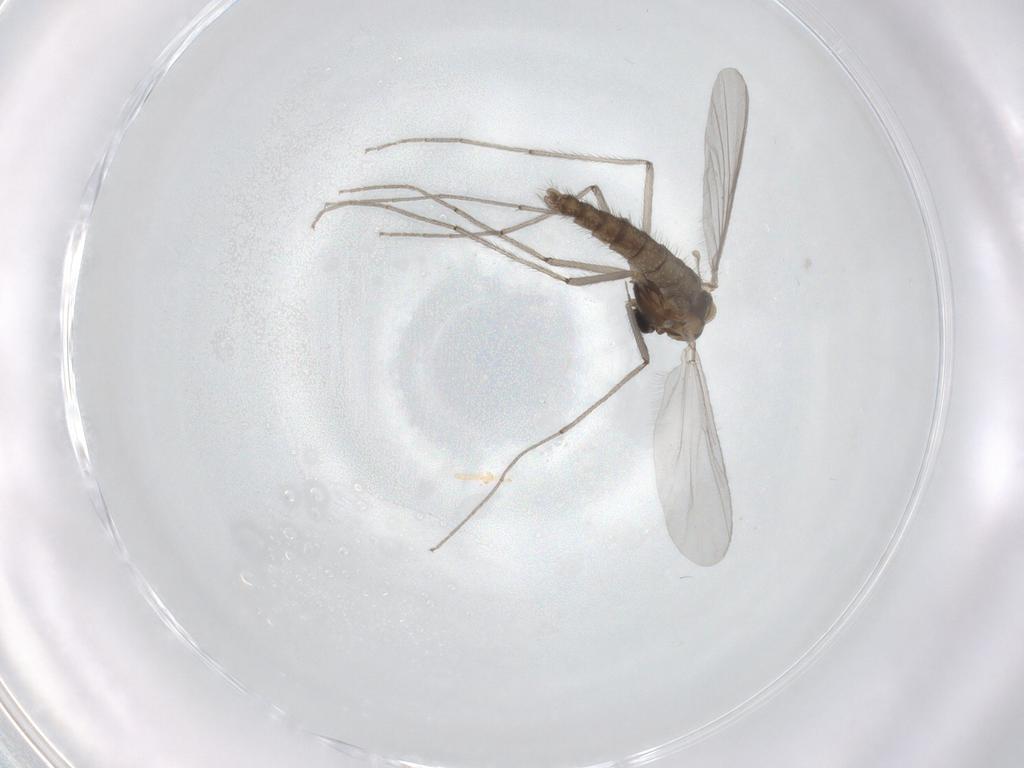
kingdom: Animalia
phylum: Arthropoda
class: Insecta
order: Diptera
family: Chironomidae
